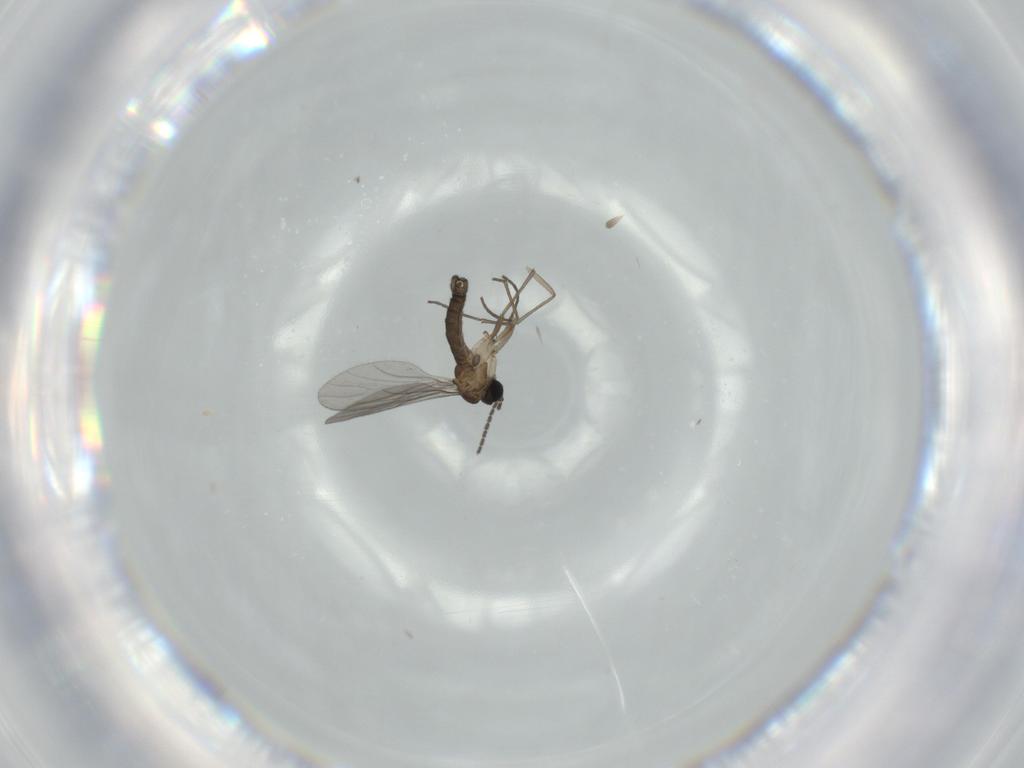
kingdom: Animalia
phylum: Arthropoda
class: Insecta
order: Diptera
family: Sciaridae
